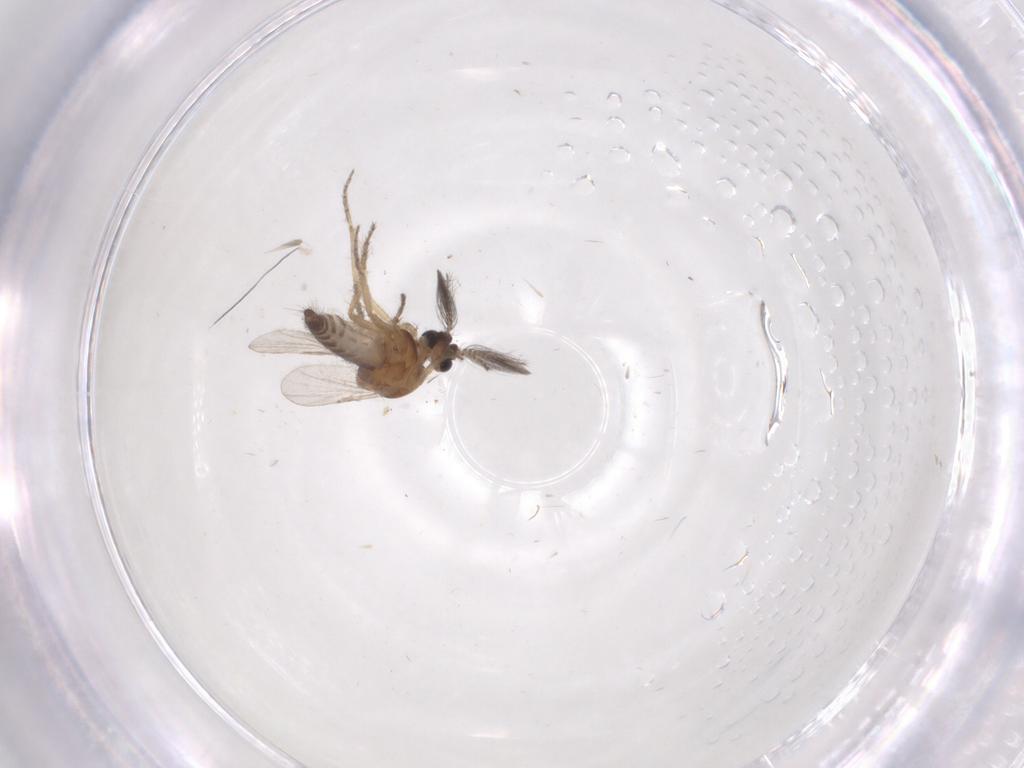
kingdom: Animalia
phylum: Arthropoda
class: Insecta
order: Diptera
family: Ceratopogonidae
